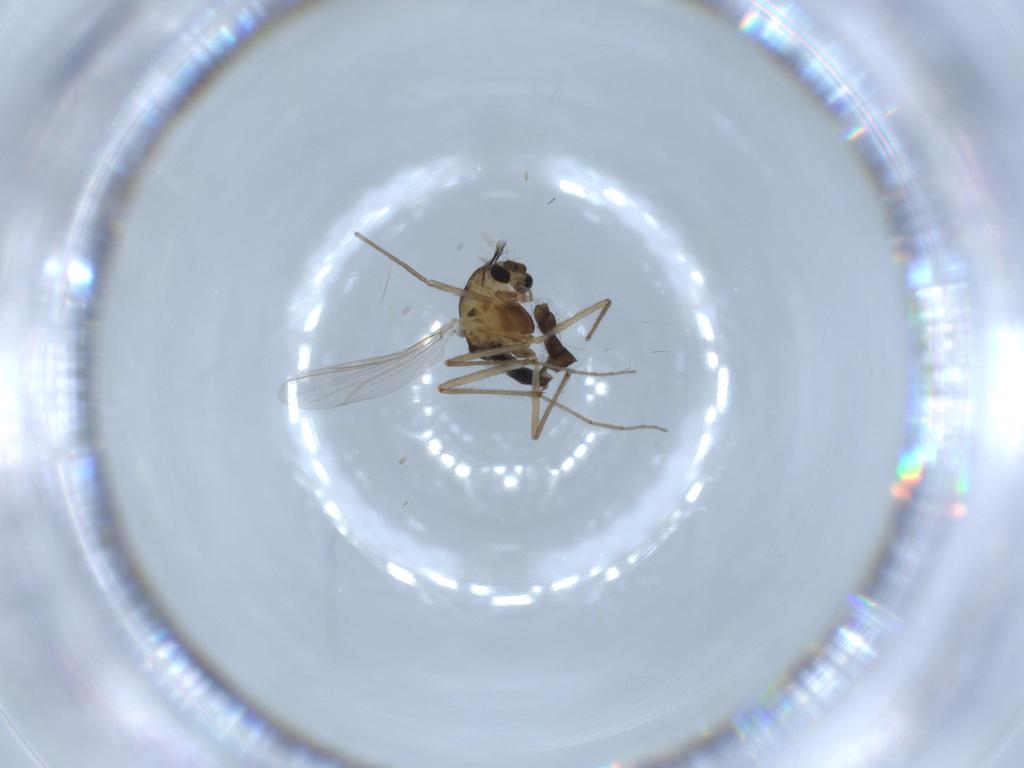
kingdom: Animalia
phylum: Arthropoda
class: Insecta
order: Diptera
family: Chironomidae
